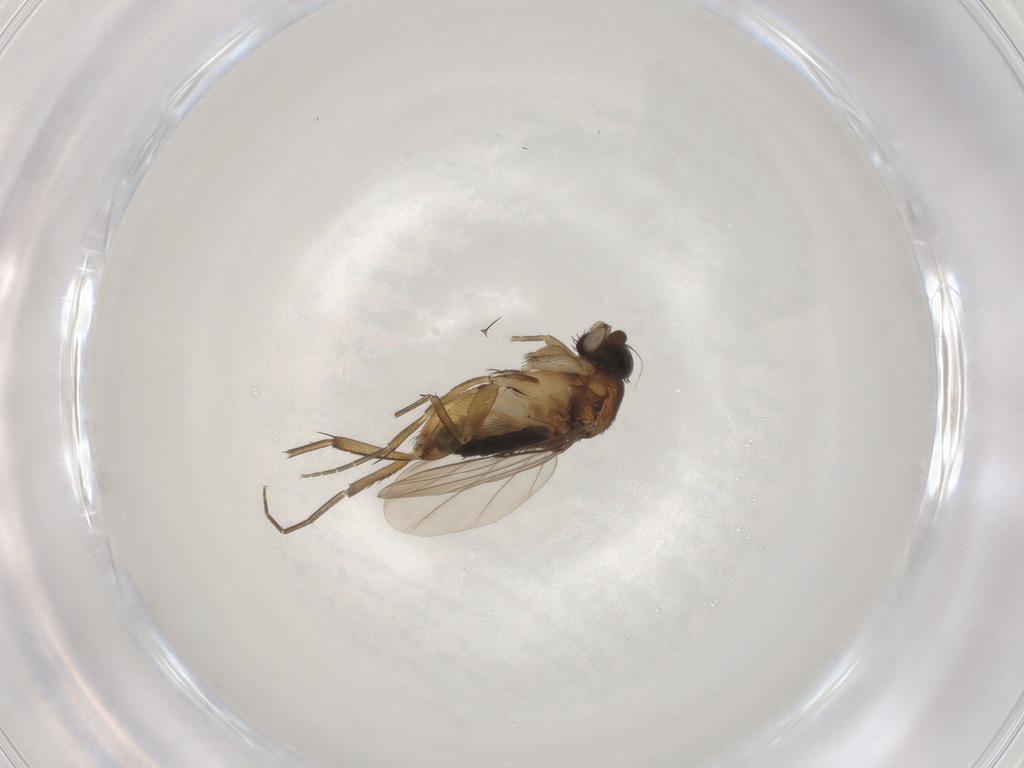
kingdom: Animalia
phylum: Arthropoda
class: Insecta
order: Diptera
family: Phoridae
